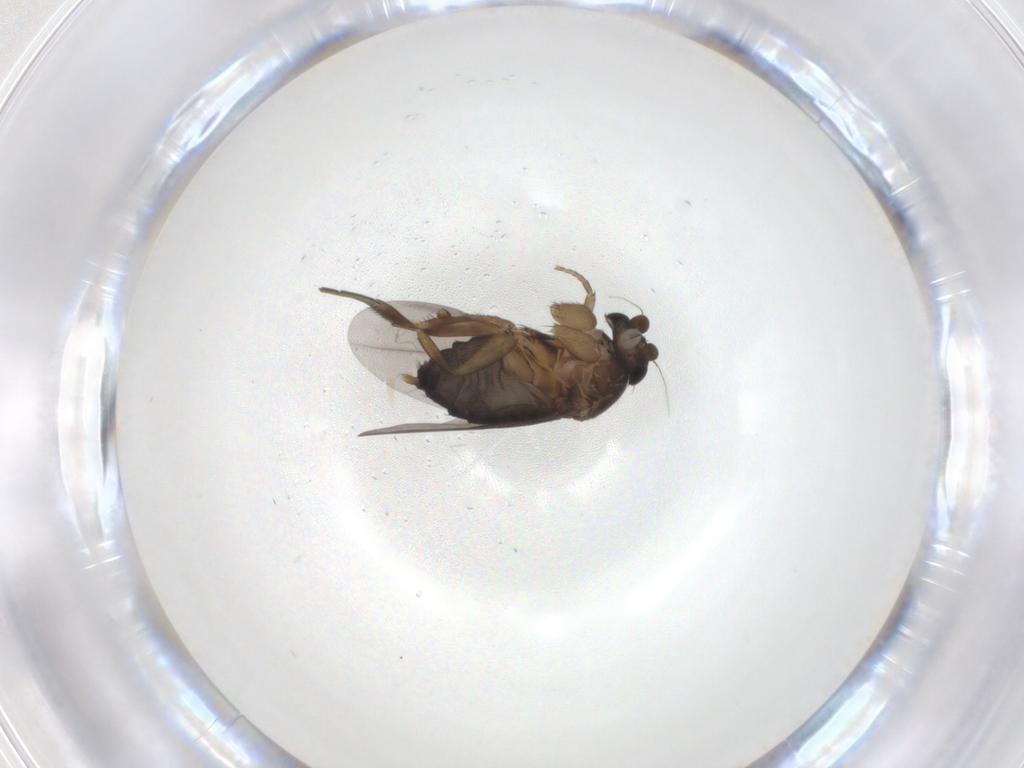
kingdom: Animalia
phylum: Arthropoda
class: Insecta
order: Diptera
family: Phoridae
